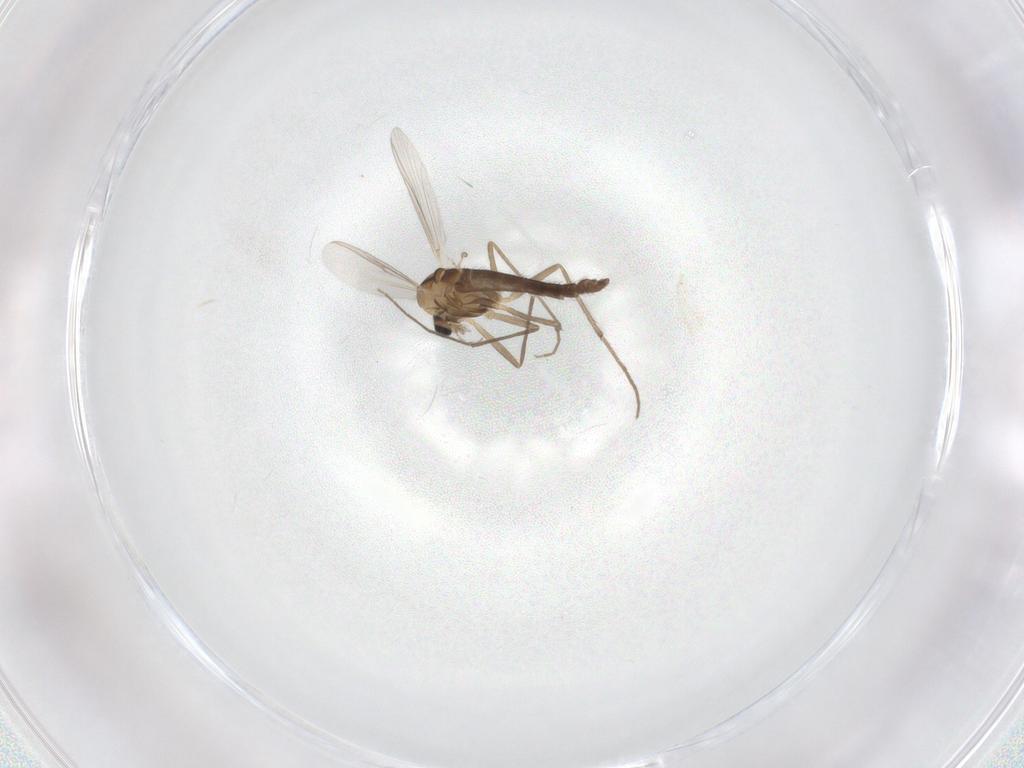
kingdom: Animalia
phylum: Arthropoda
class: Insecta
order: Diptera
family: Chironomidae
